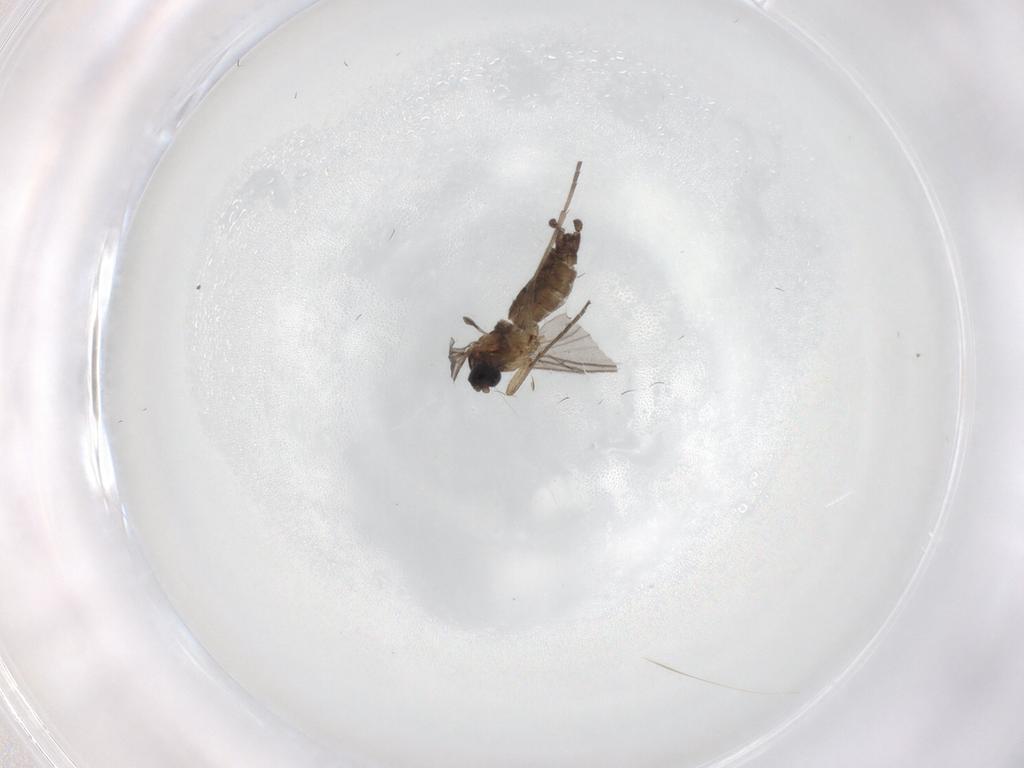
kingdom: Animalia
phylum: Arthropoda
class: Insecta
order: Diptera
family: Sciaridae
